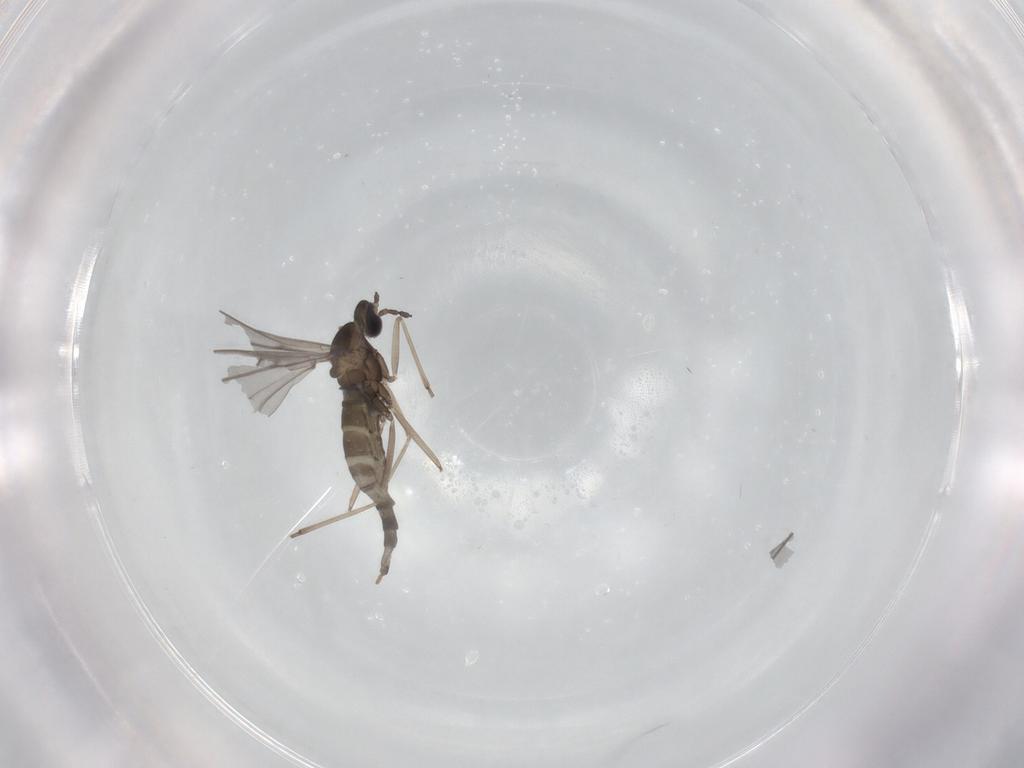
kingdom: Animalia
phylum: Arthropoda
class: Insecta
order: Diptera
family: Cecidomyiidae
